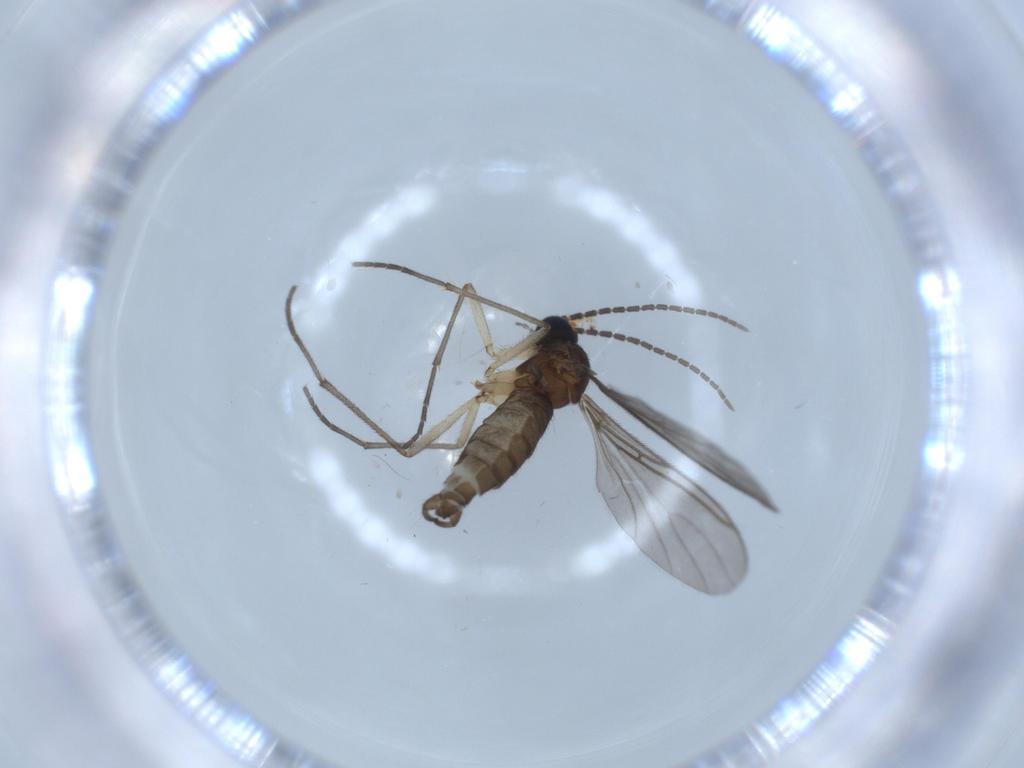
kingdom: Animalia
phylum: Arthropoda
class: Insecta
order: Diptera
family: Sciaridae
